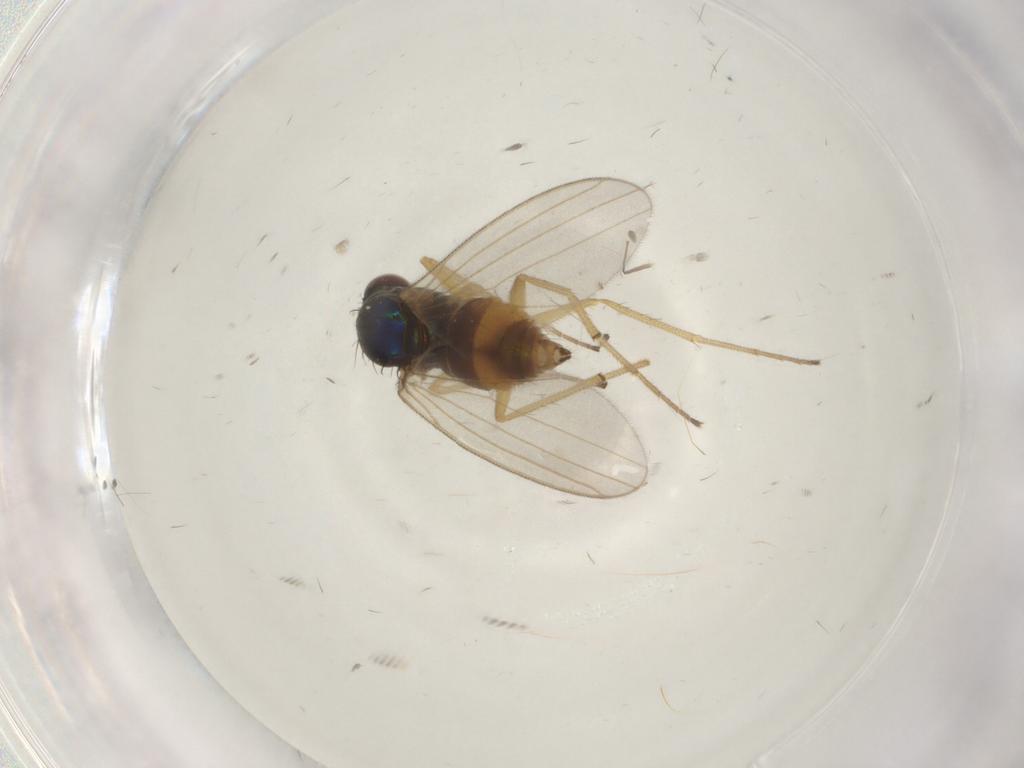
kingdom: Animalia
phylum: Arthropoda
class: Insecta
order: Diptera
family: Dolichopodidae
